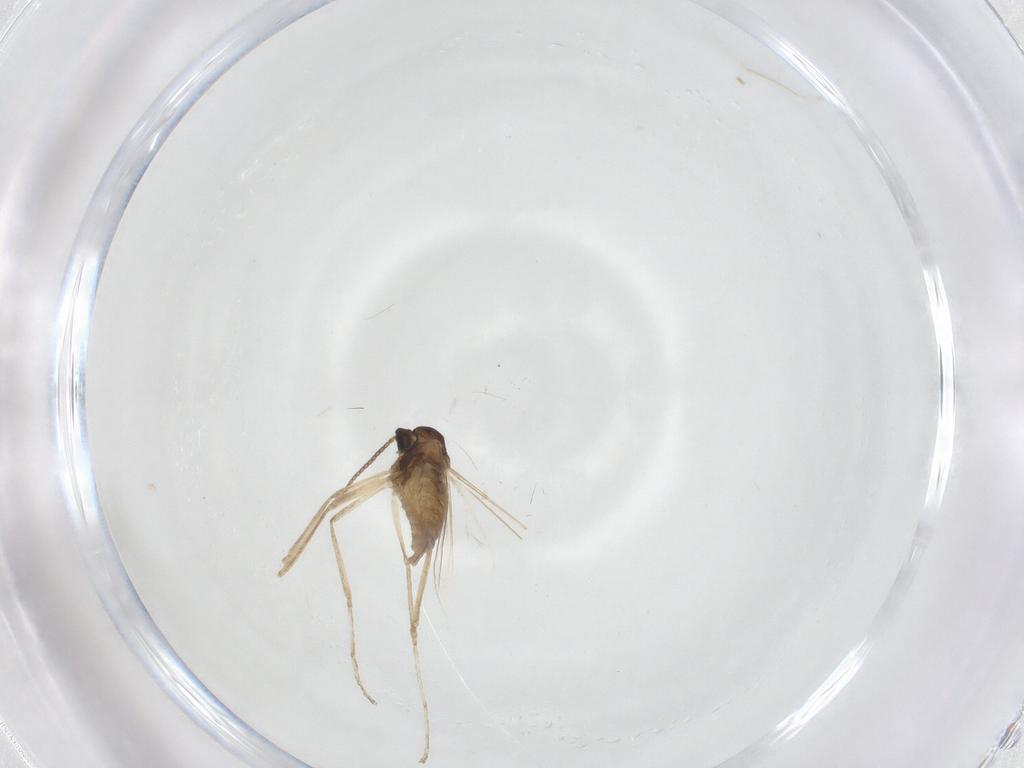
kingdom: Animalia
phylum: Arthropoda
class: Insecta
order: Diptera
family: Cecidomyiidae
